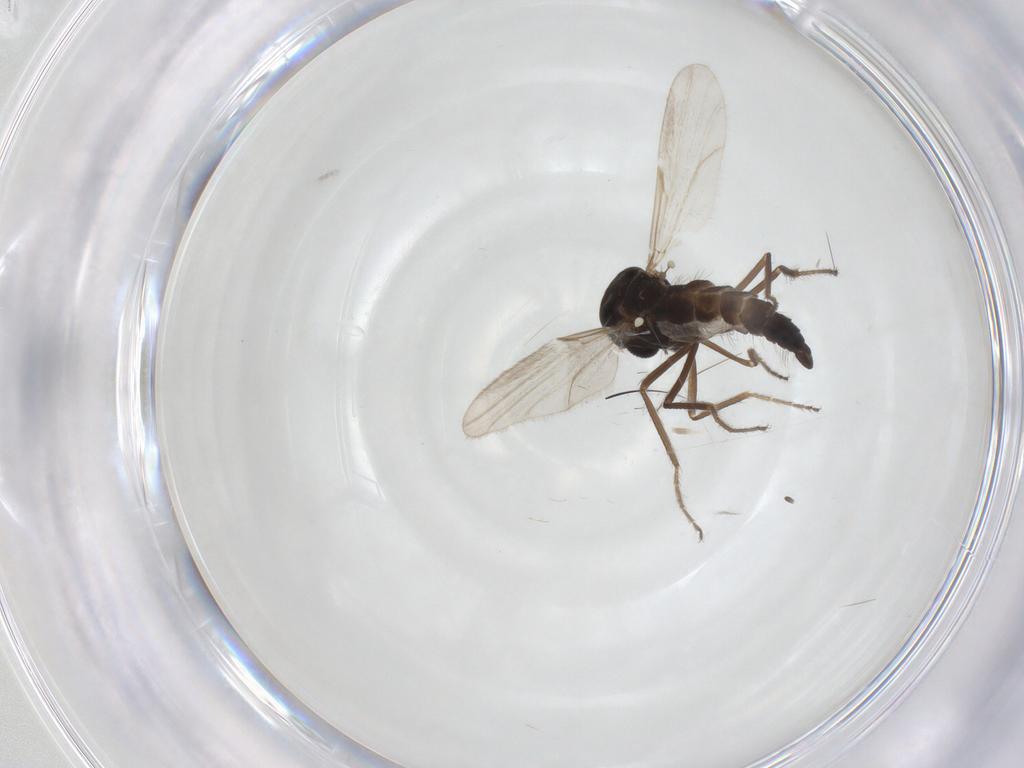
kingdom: Animalia
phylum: Arthropoda
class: Insecta
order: Diptera
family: Ceratopogonidae
